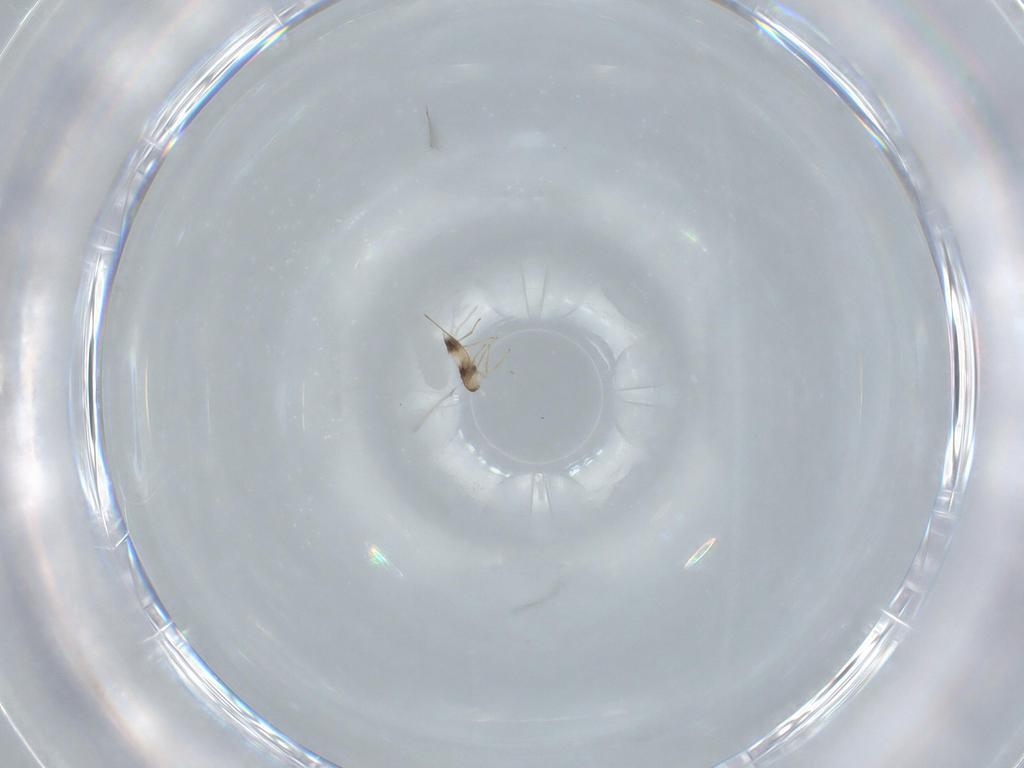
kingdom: Animalia
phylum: Arthropoda
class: Insecta
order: Hymenoptera
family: Mymaridae
